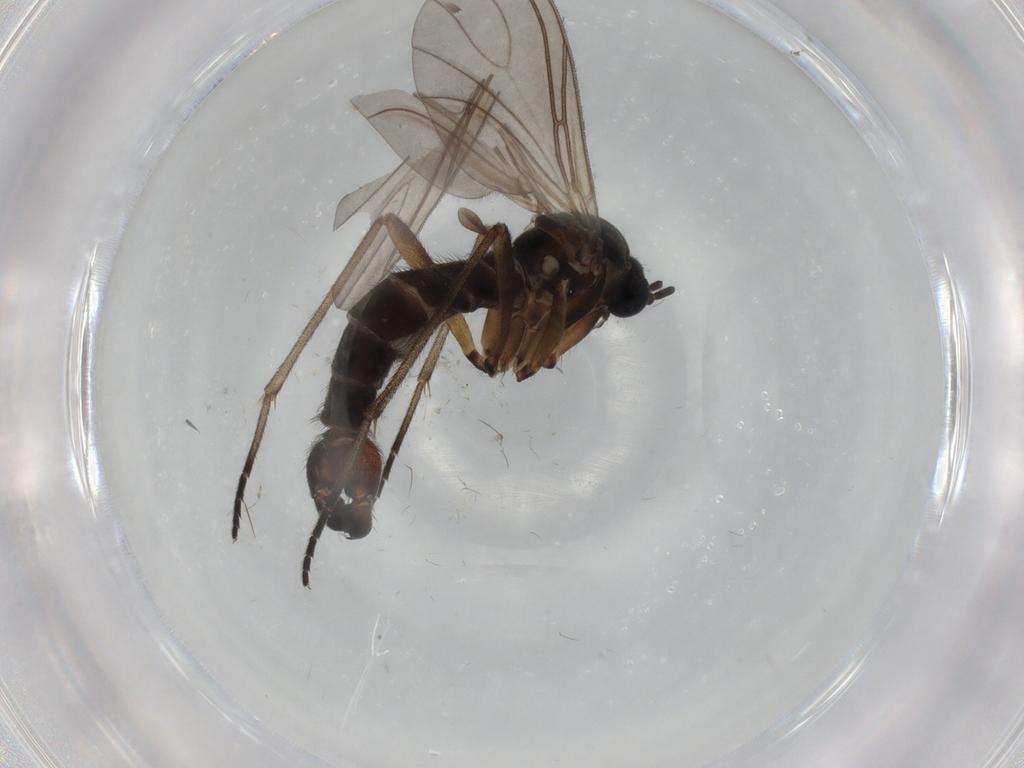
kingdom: Animalia
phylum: Arthropoda
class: Insecta
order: Diptera
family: Sciaridae
